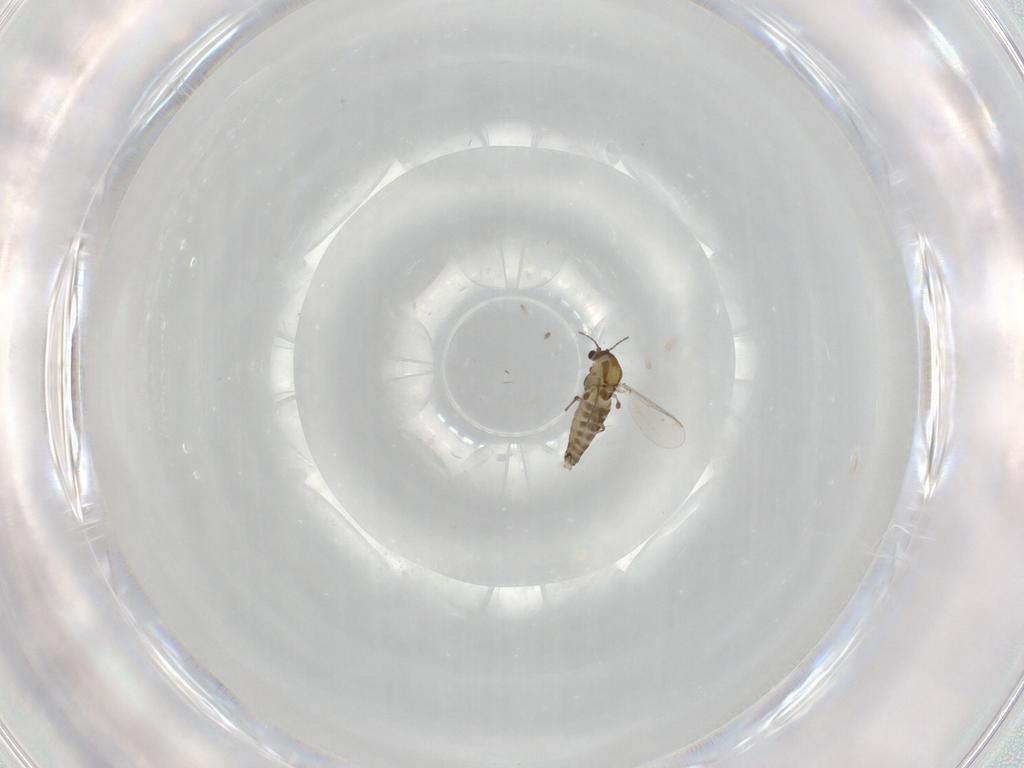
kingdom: Animalia
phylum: Arthropoda
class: Insecta
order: Diptera
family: Chironomidae
